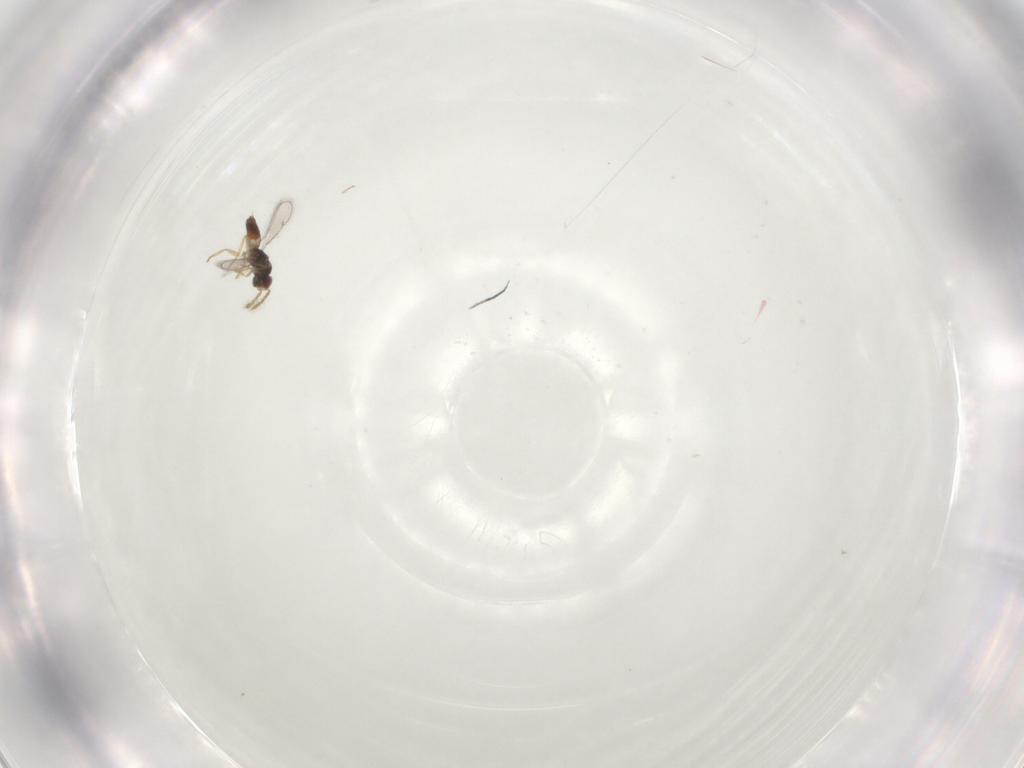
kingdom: Animalia
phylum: Arthropoda
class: Insecta
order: Hymenoptera
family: Eulophidae
